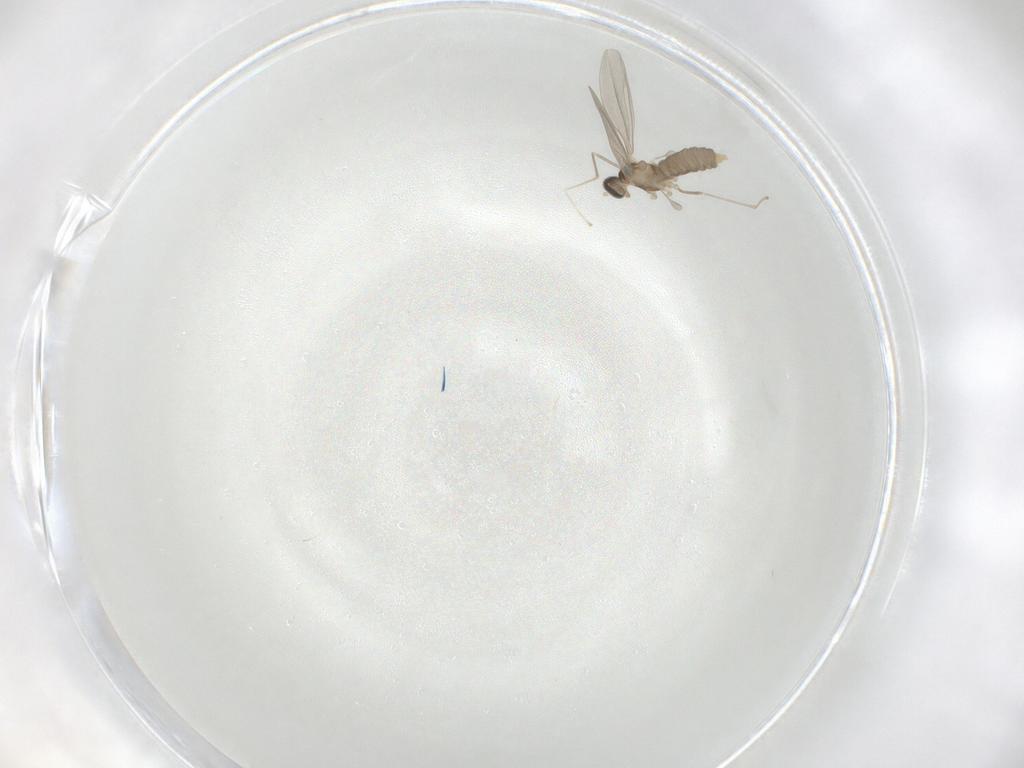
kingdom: Animalia
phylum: Arthropoda
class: Insecta
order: Diptera
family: Cecidomyiidae
